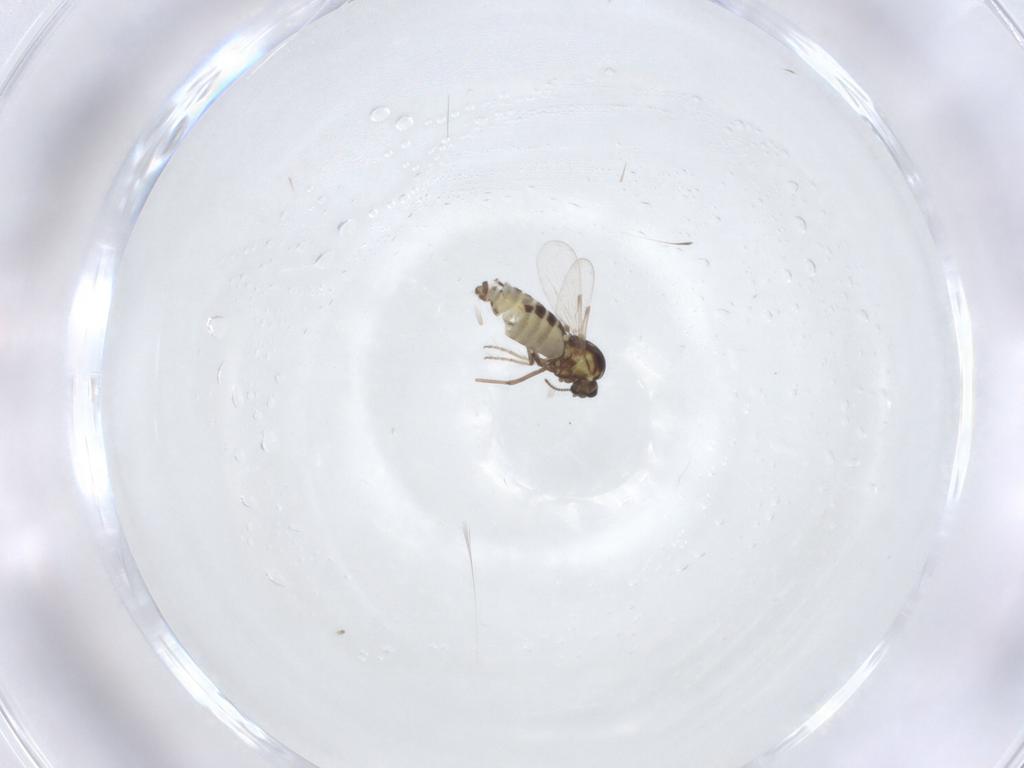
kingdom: Animalia
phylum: Arthropoda
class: Insecta
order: Diptera
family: Ceratopogonidae
